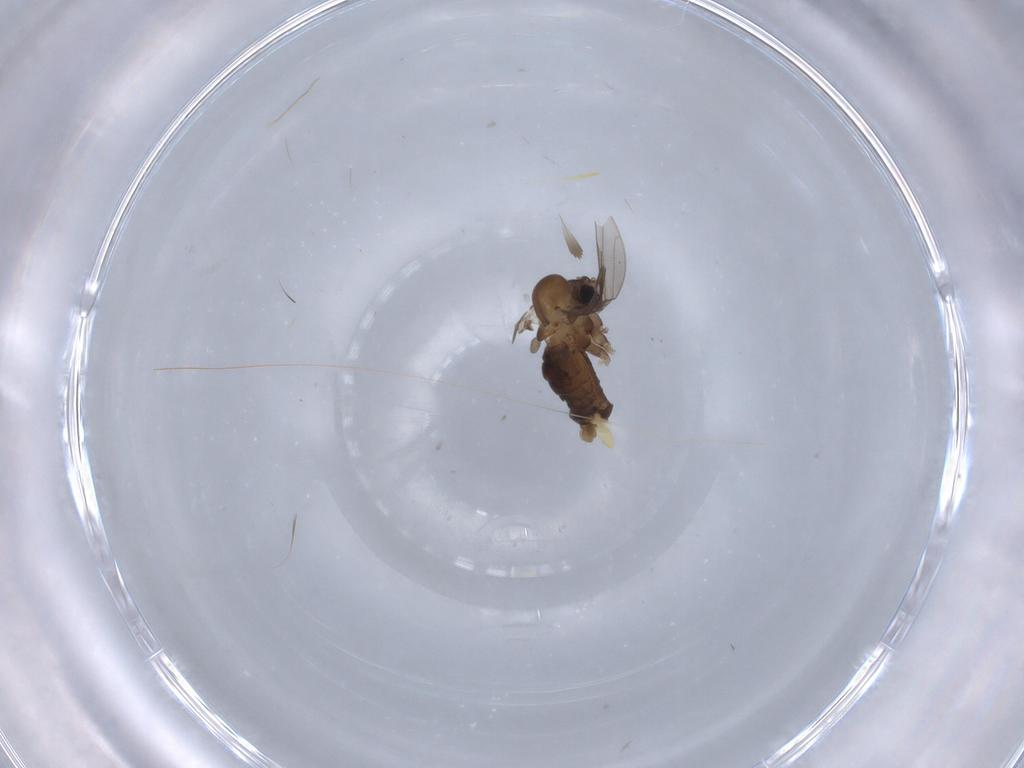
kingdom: Animalia
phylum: Arthropoda
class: Insecta
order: Diptera
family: Psychodidae
